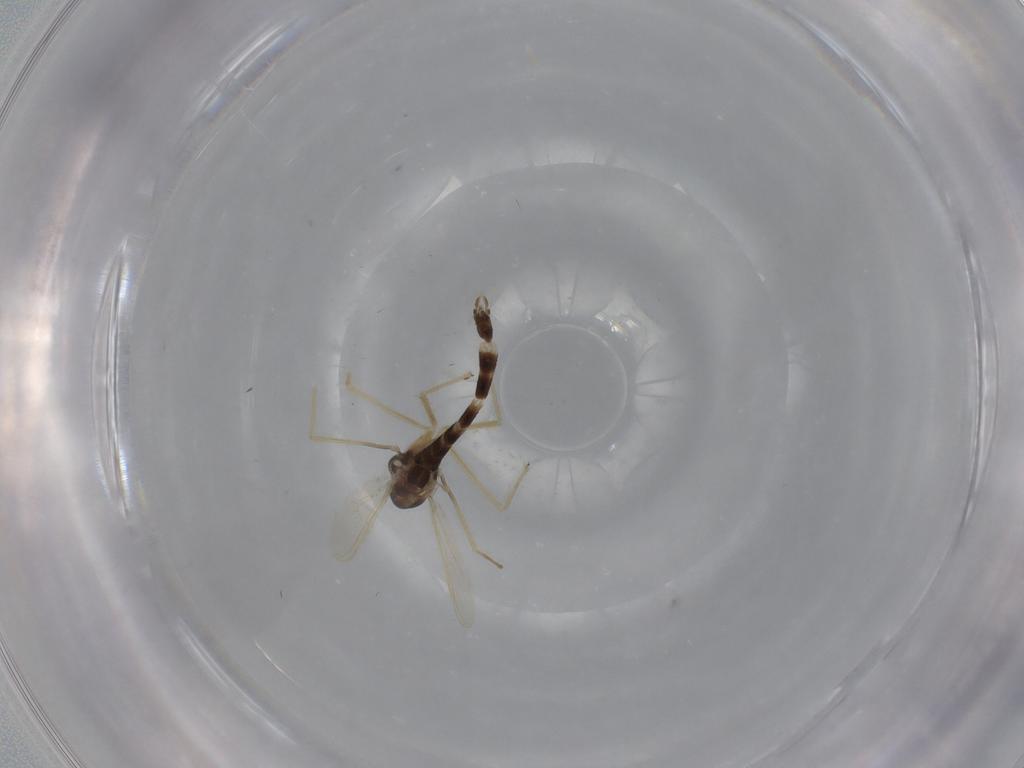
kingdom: Animalia
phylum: Arthropoda
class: Insecta
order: Diptera
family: Chironomidae
